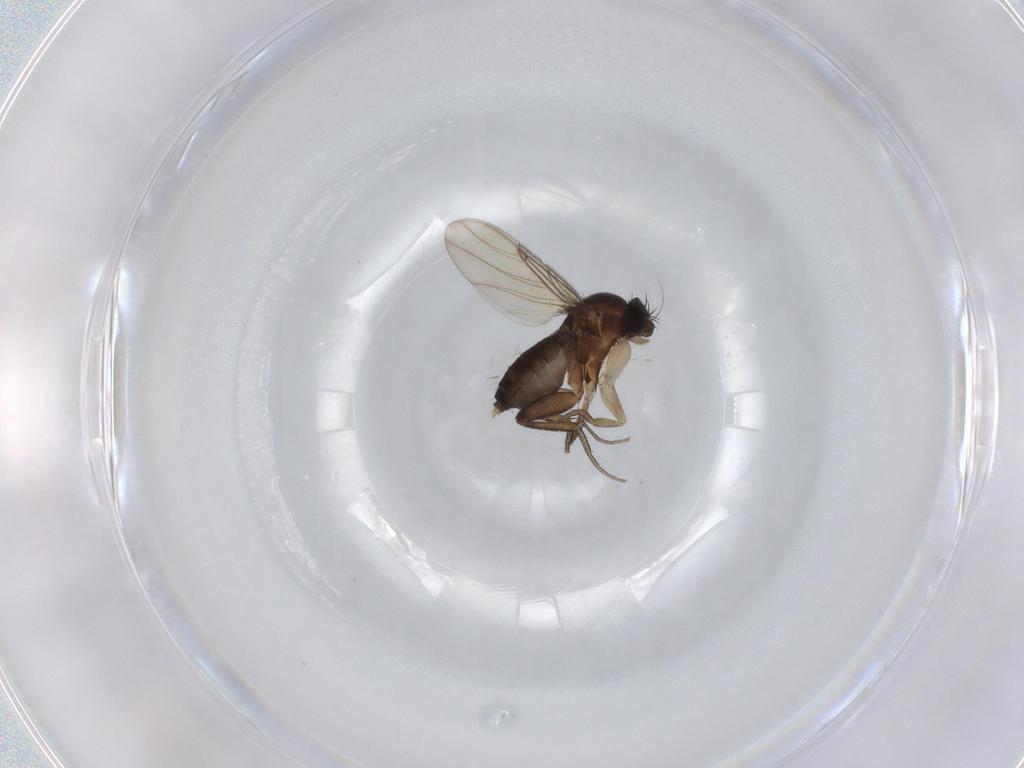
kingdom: Animalia
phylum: Arthropoda
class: Insecta
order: Diptera
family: Phoridae
